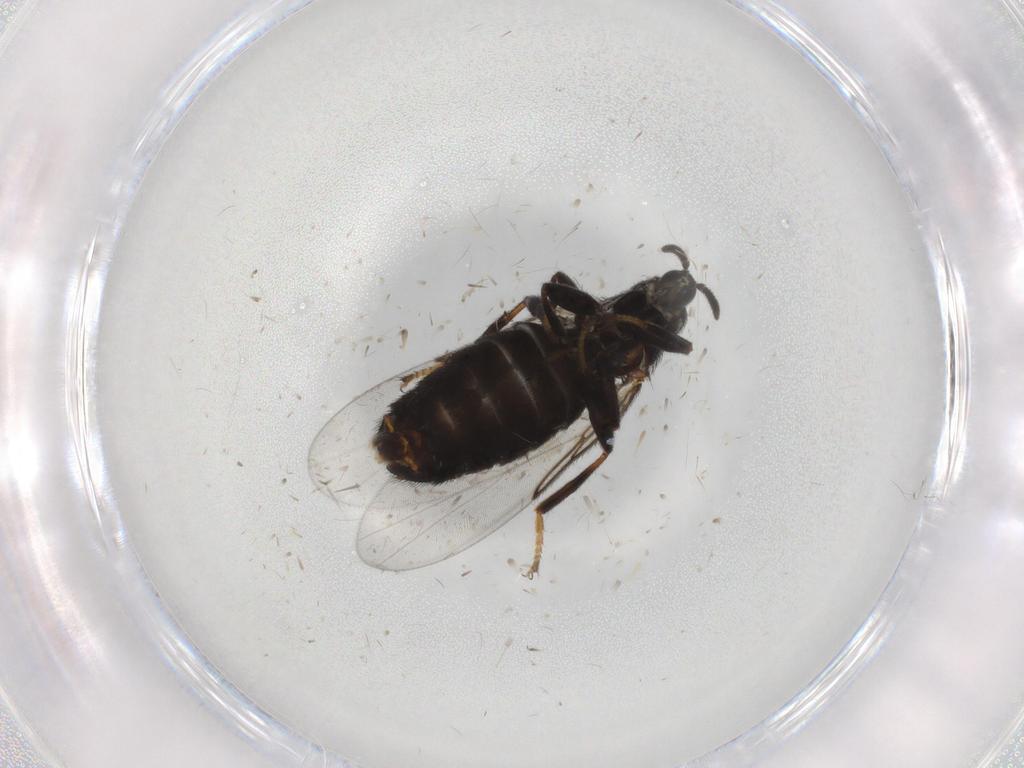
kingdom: Animalia
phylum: Arthropoda
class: Insecta
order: Diptera
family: Scatopsidae
